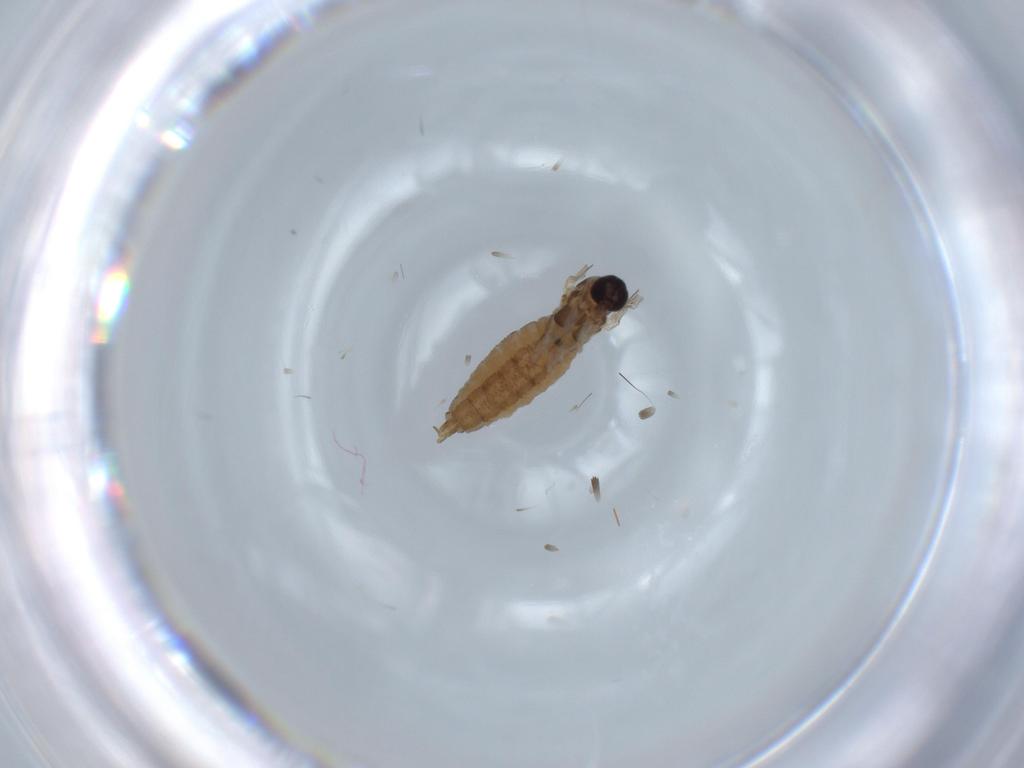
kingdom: Animalia
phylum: Arthropoda
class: Insecta
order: Diptera
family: Cecidomyiidae
